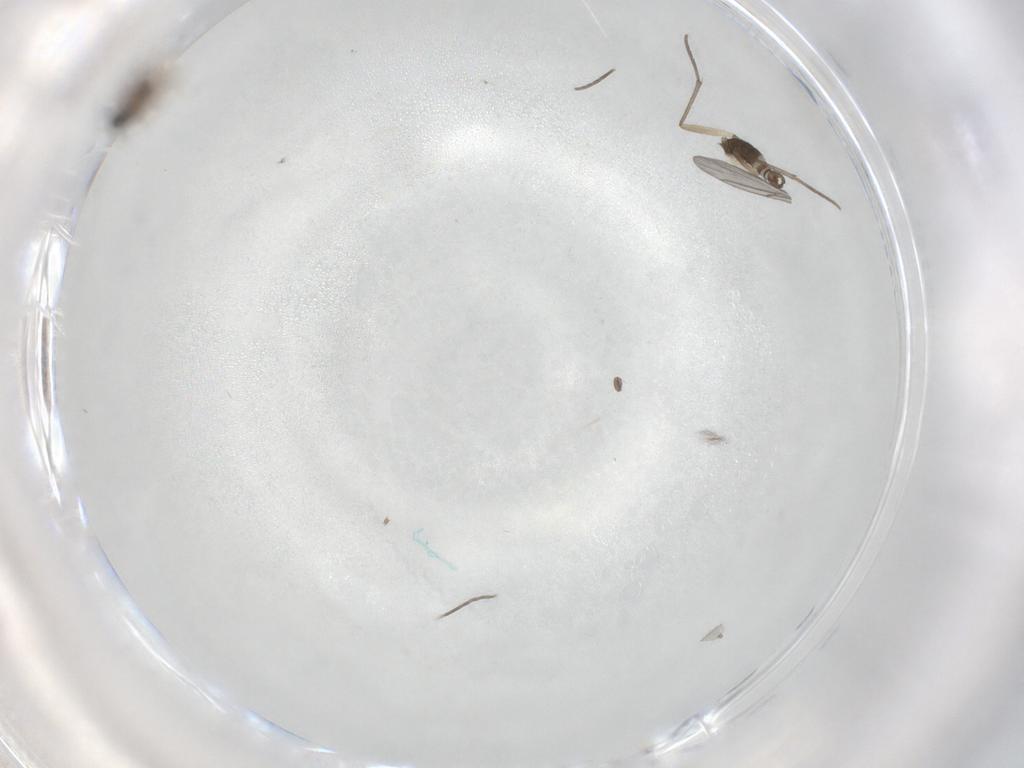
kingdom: Animalia
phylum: Arthropoda
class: Insecta
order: Diptera
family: Sciaridae
